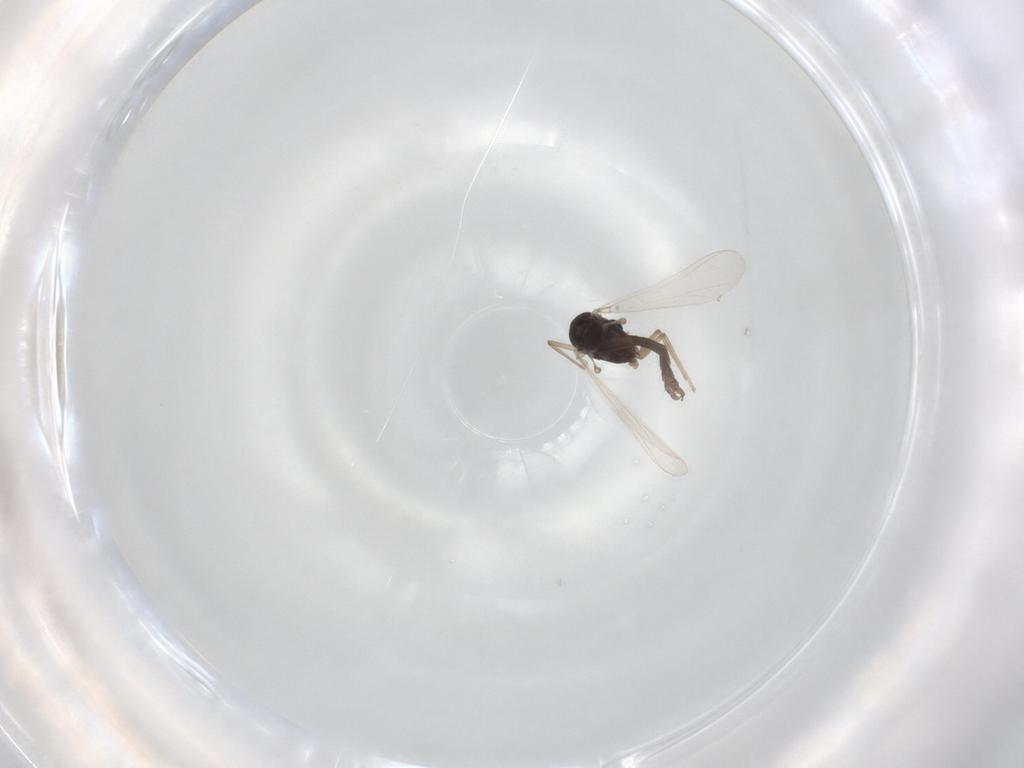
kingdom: Animalia
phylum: Arthropoda
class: Insecta
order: Diptera
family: Chironomidae
